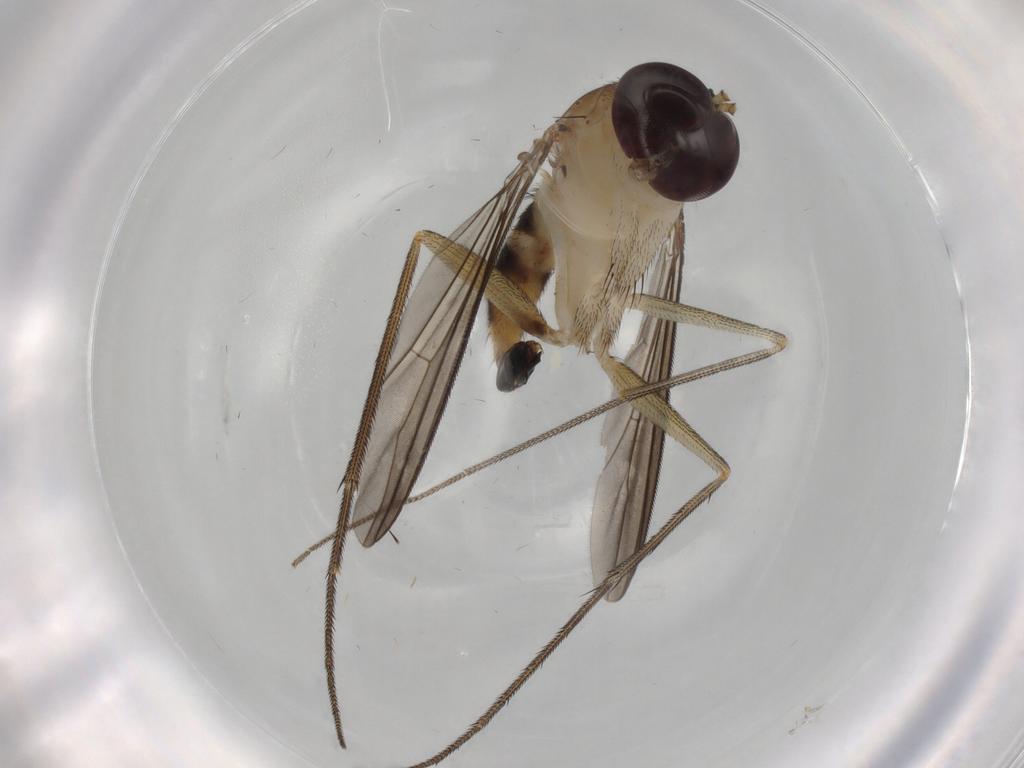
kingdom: Animalia
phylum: Arthropoda
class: Insecta
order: Diptera
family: Dolichopodidae
